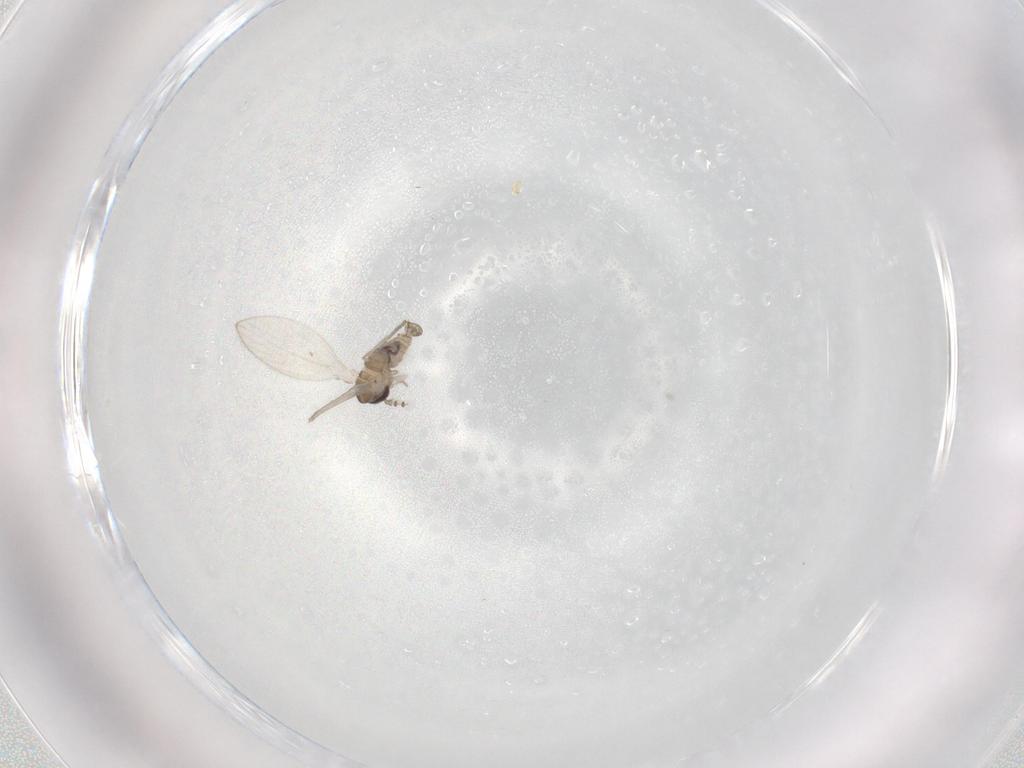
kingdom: Animalia
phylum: Arthropoda
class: Insecta
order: Diptera
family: Psychodidae
